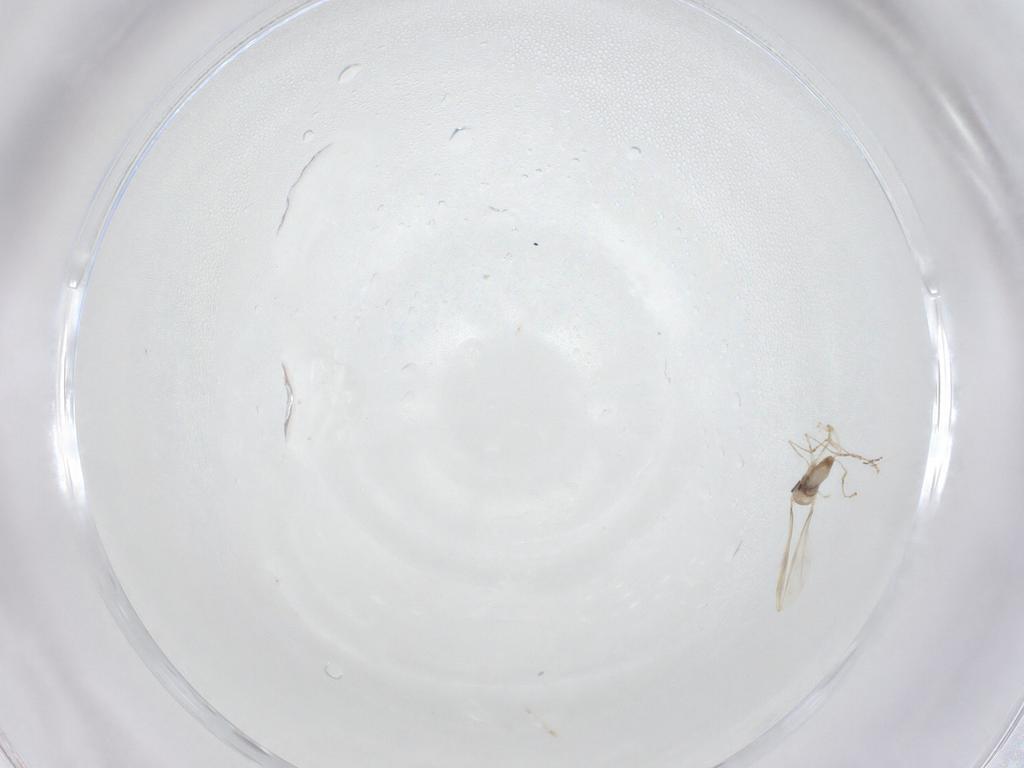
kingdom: Animalia
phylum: Arthropoda
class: Insecta
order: Diptera
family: Cecidomyiidae
